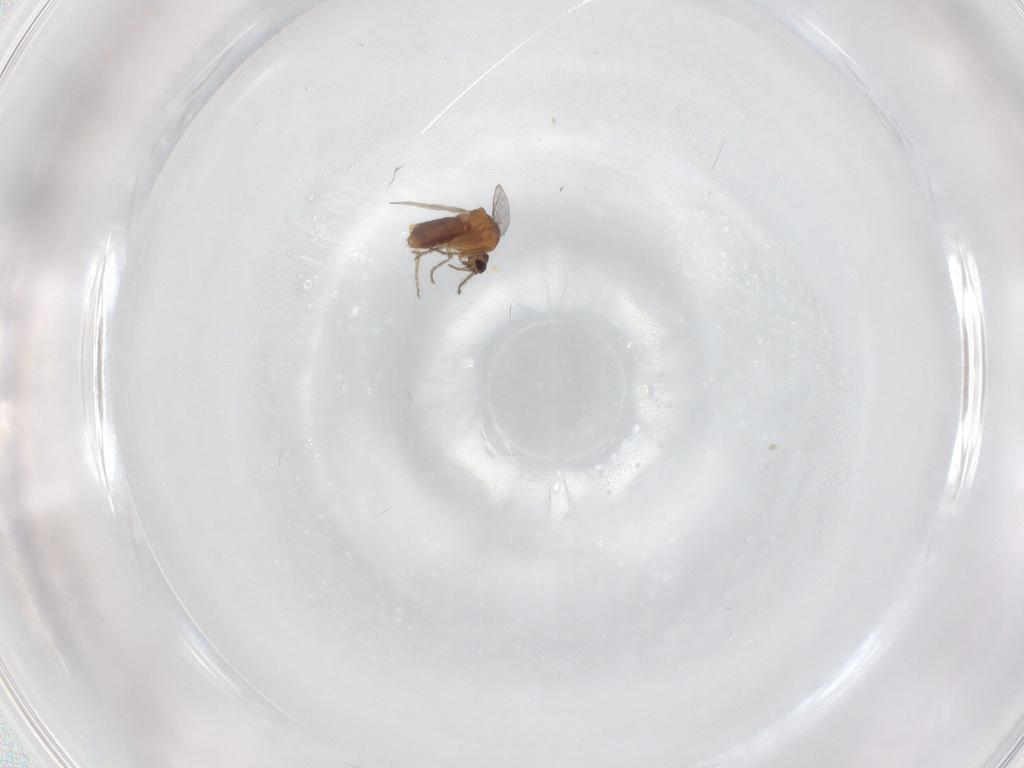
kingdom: Animalia
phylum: Arthropoda
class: Insecta
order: Diptera
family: Ceratopogonidae
